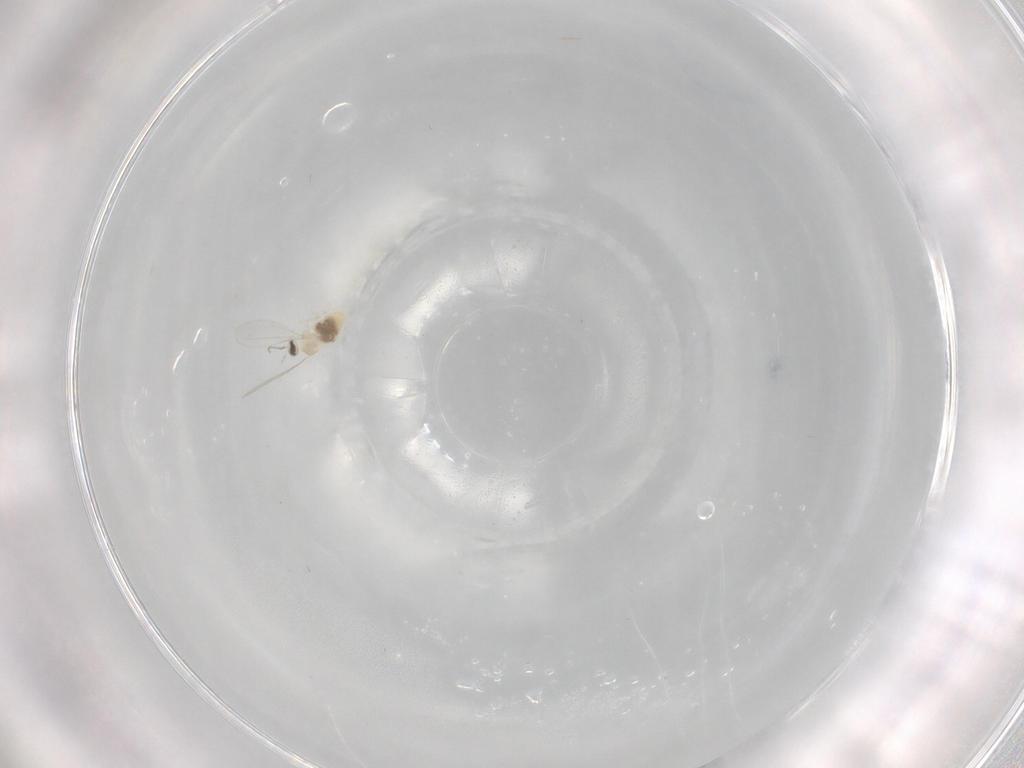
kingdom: Animalia
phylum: Arthropoda
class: Insecta
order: Diptera
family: Cecidomyiidae
